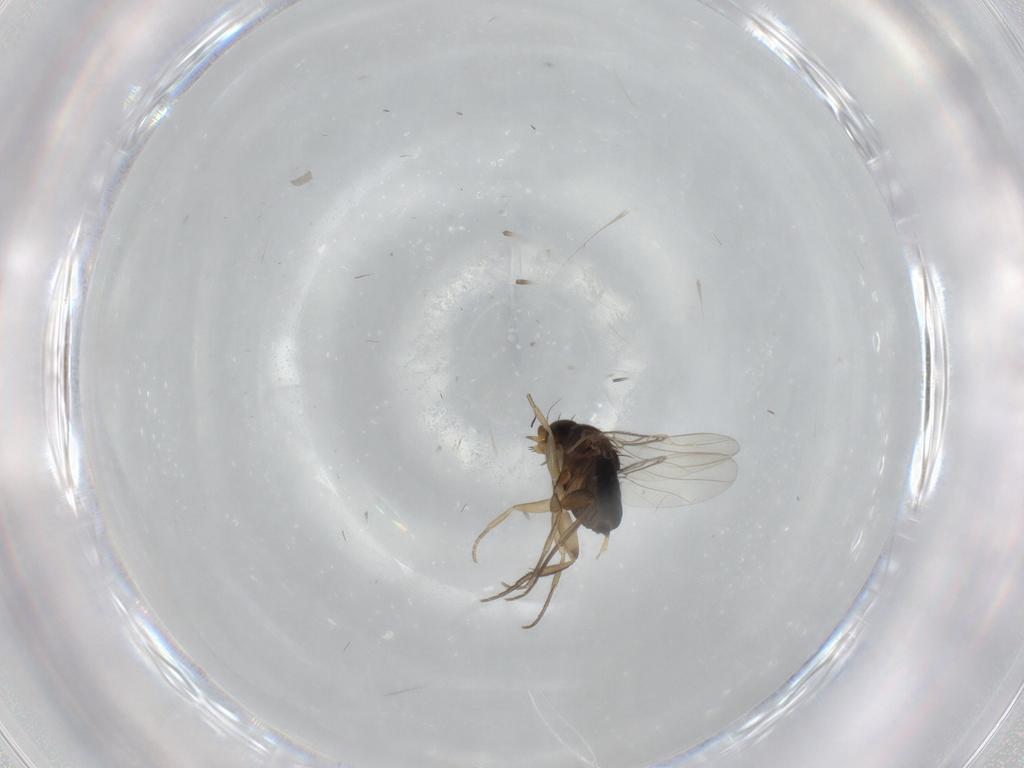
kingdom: Animalia
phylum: Arthropoda
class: Insecta
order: Diptera
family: Phoridae
